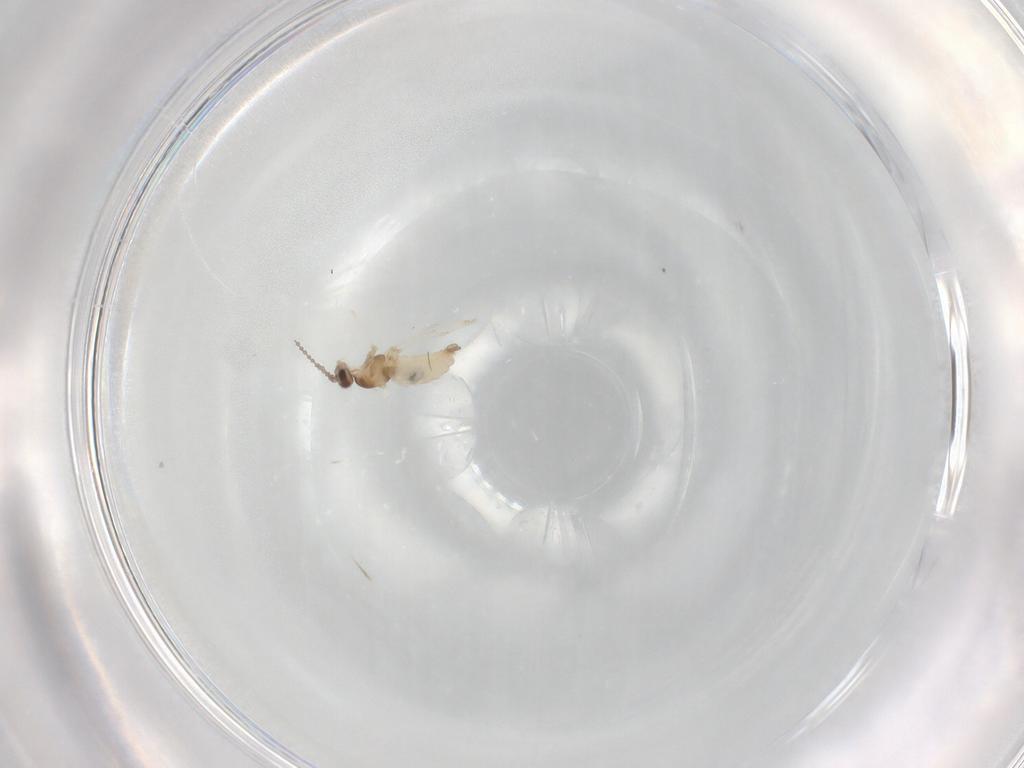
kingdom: Animalia
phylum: Arthropoda
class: Insecta
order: Diptera
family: Cecidomyiidae
